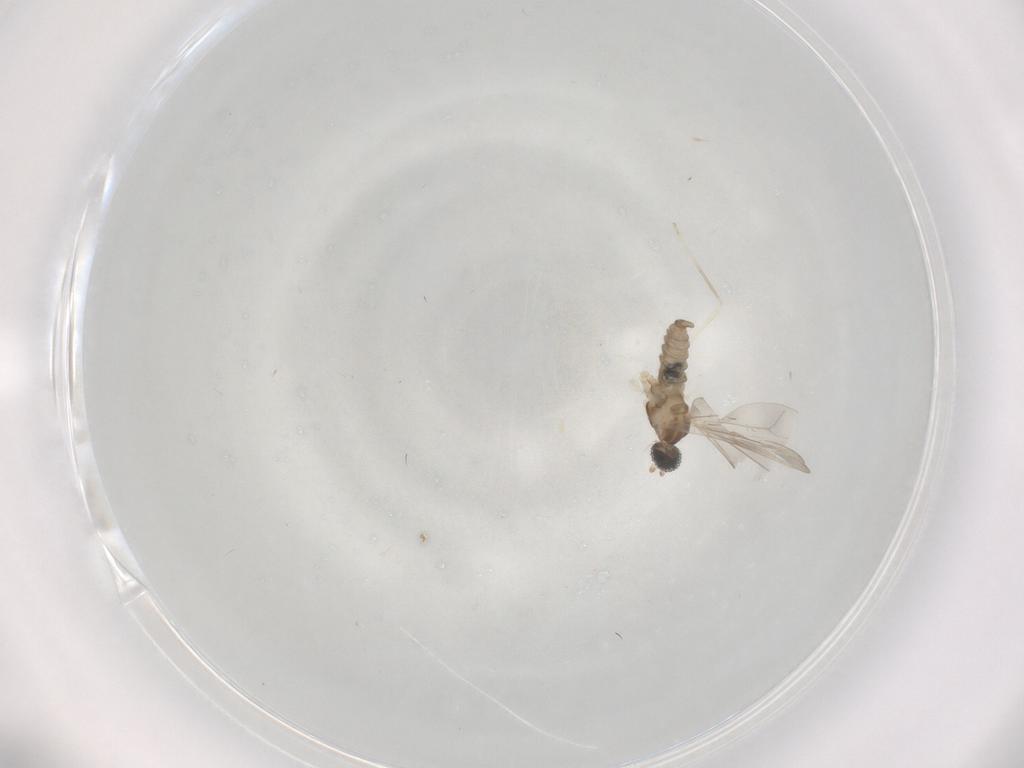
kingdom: Animalia
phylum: Arthropoda
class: Insecta
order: Diptera
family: Cecidomyiidae
